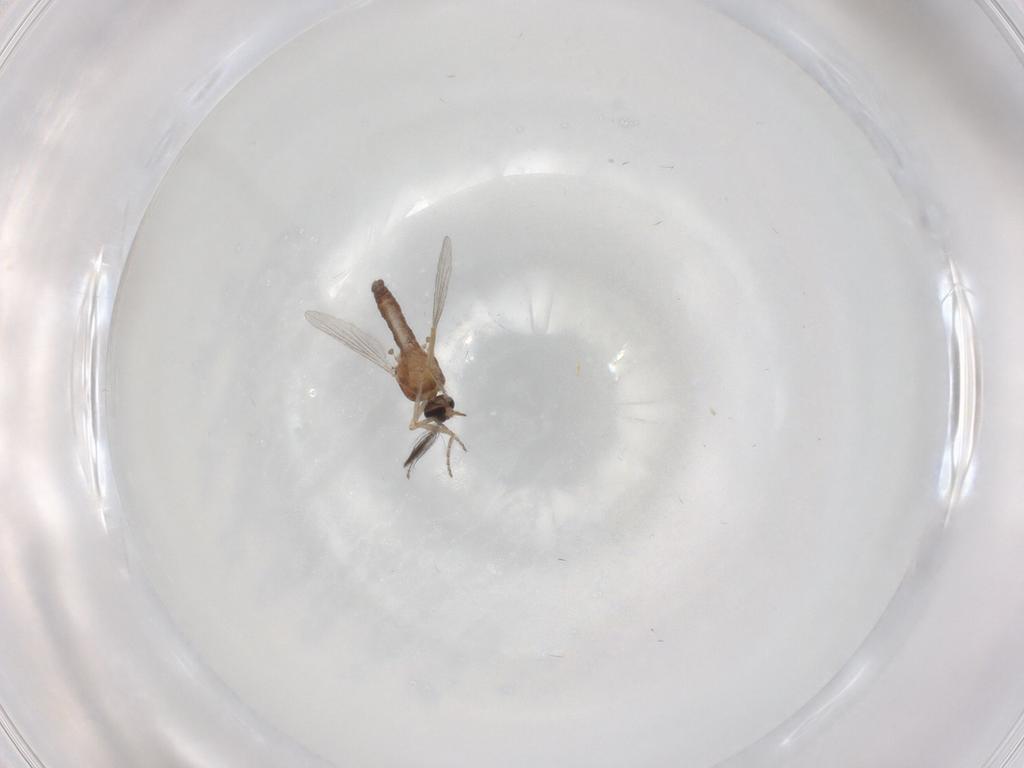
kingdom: Animalia
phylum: Arthropoda
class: Insecta
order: Diptera
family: Ceratopogonidae
